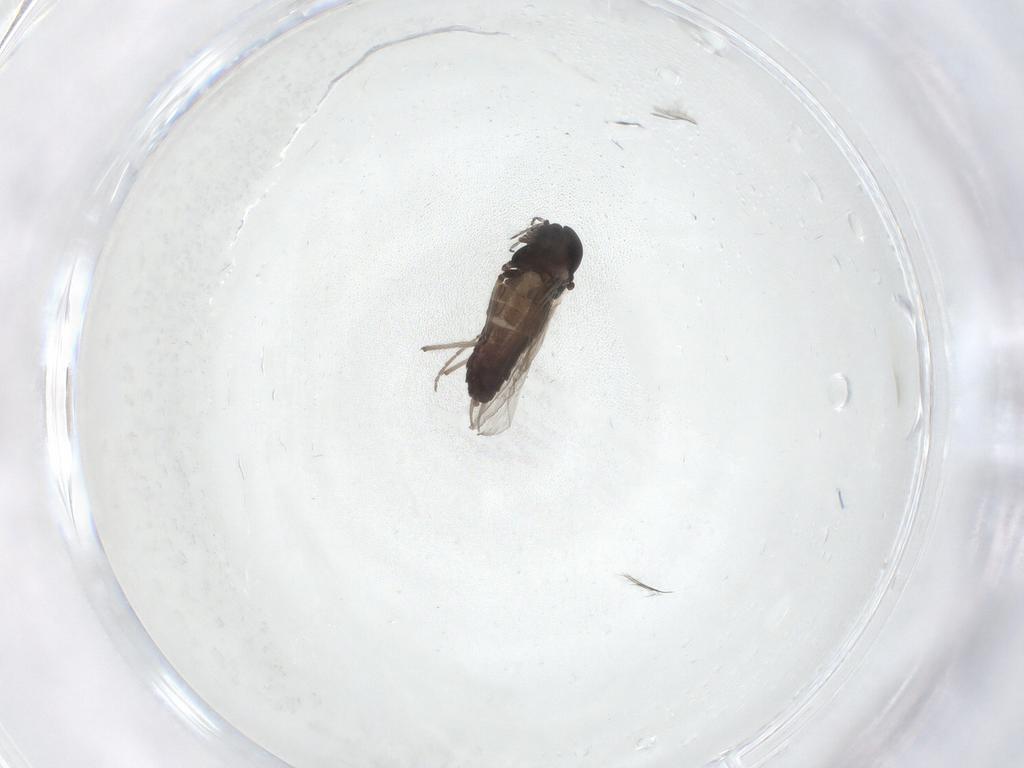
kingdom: Animalia
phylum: Arthropoda
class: Insecta
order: Diptera
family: Chironomidae
